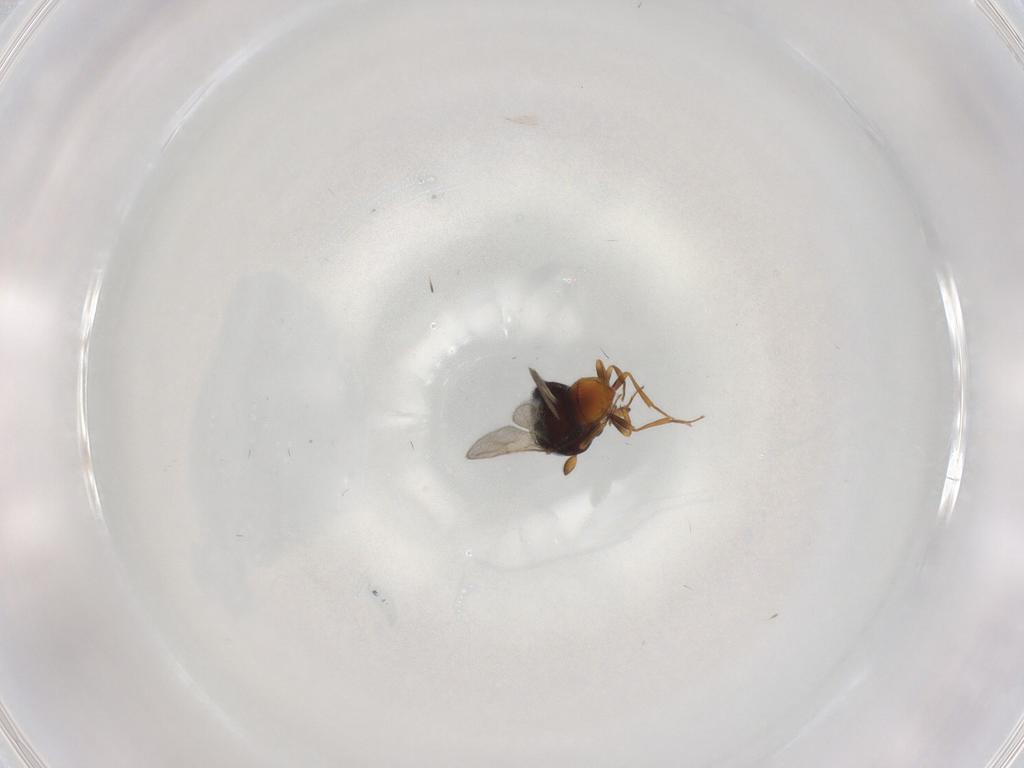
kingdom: Animalia
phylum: Arthropoda
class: Insecta
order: Hymenoptera
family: Scelionidae
